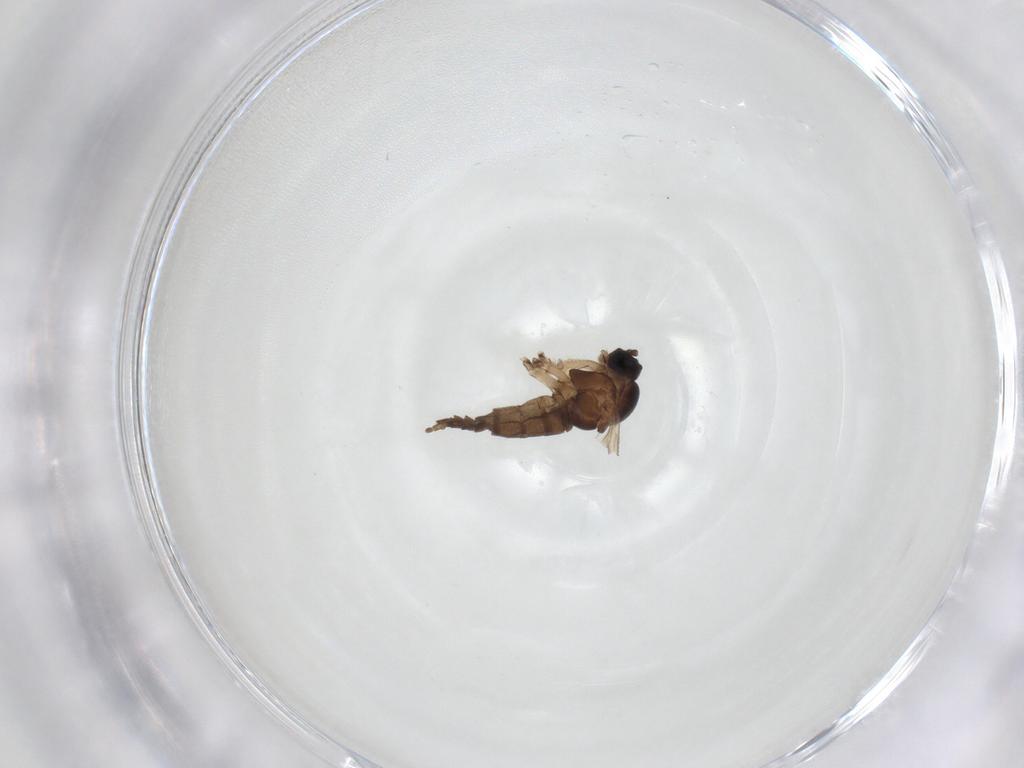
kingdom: Animalia
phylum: Arthropoda
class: Insecta
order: Diptera
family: Sciaridae
